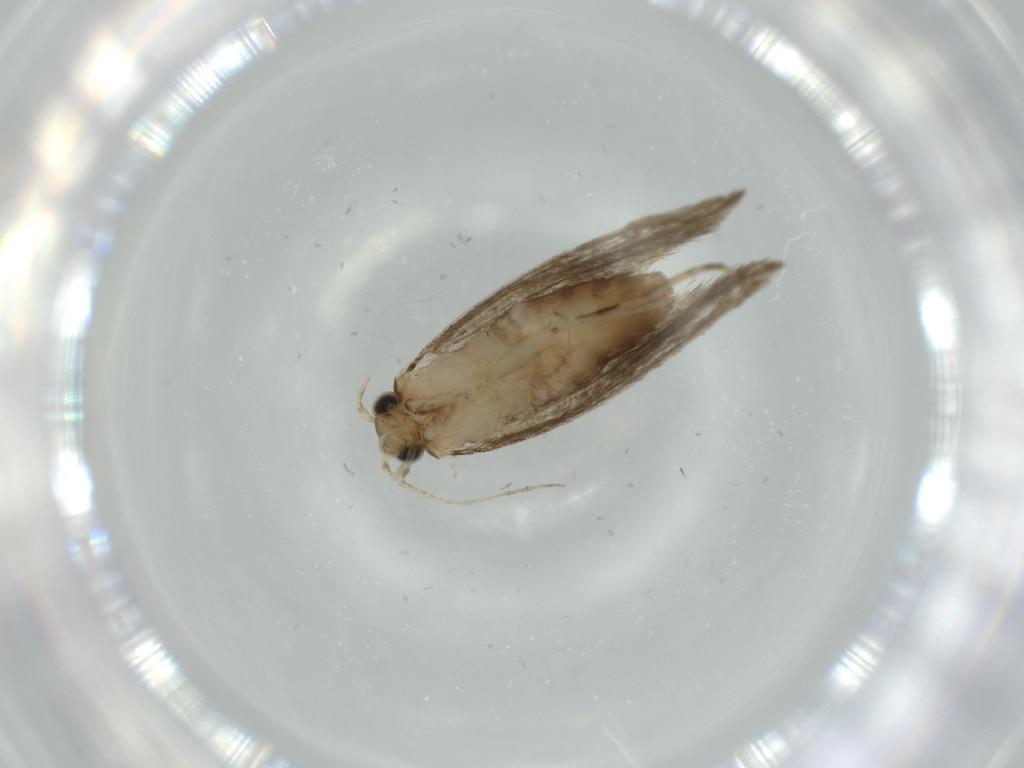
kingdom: Animalia
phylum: Arthropoda
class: Insecta
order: Lepidoptera
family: Tineidae
